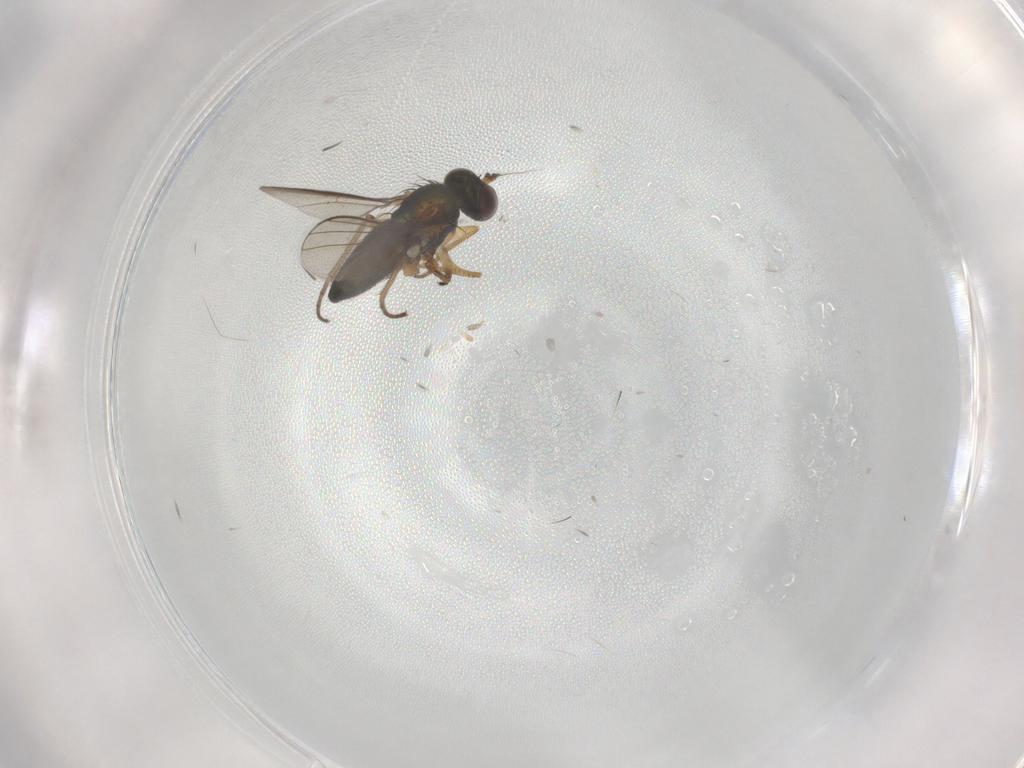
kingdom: Animalia
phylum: Arthropoda
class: Insecta
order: Diptera
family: Dolichopodidae
